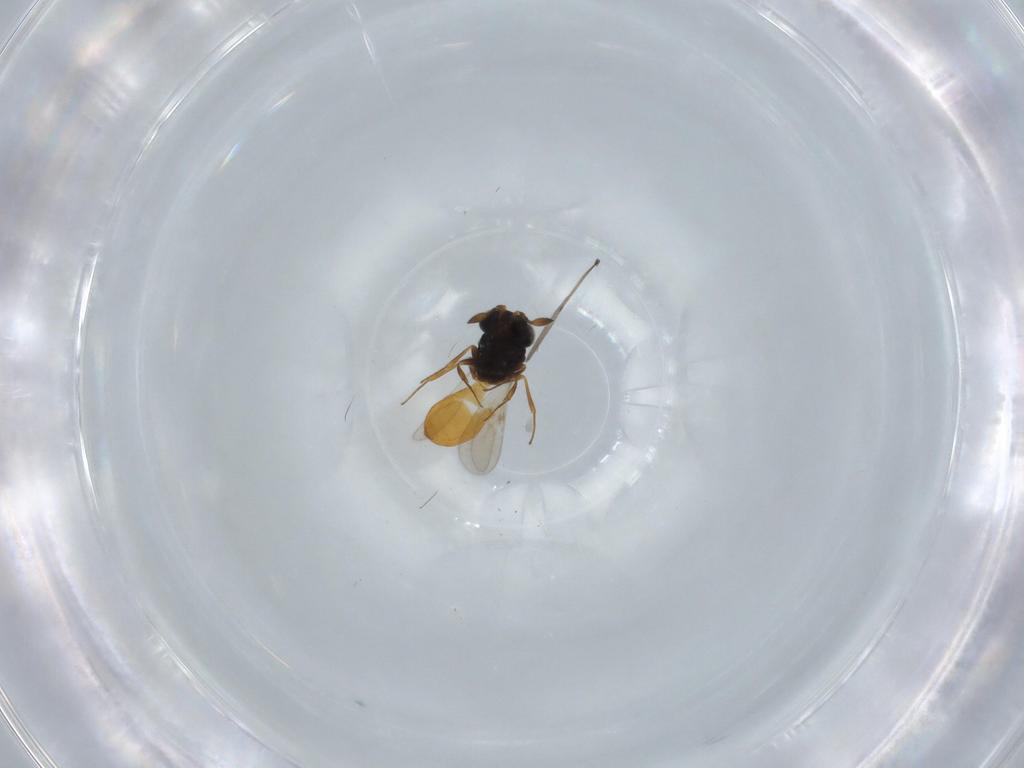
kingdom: Animalia
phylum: Arthropoda
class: Insecta
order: Hymenoptera
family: Scelionidae
